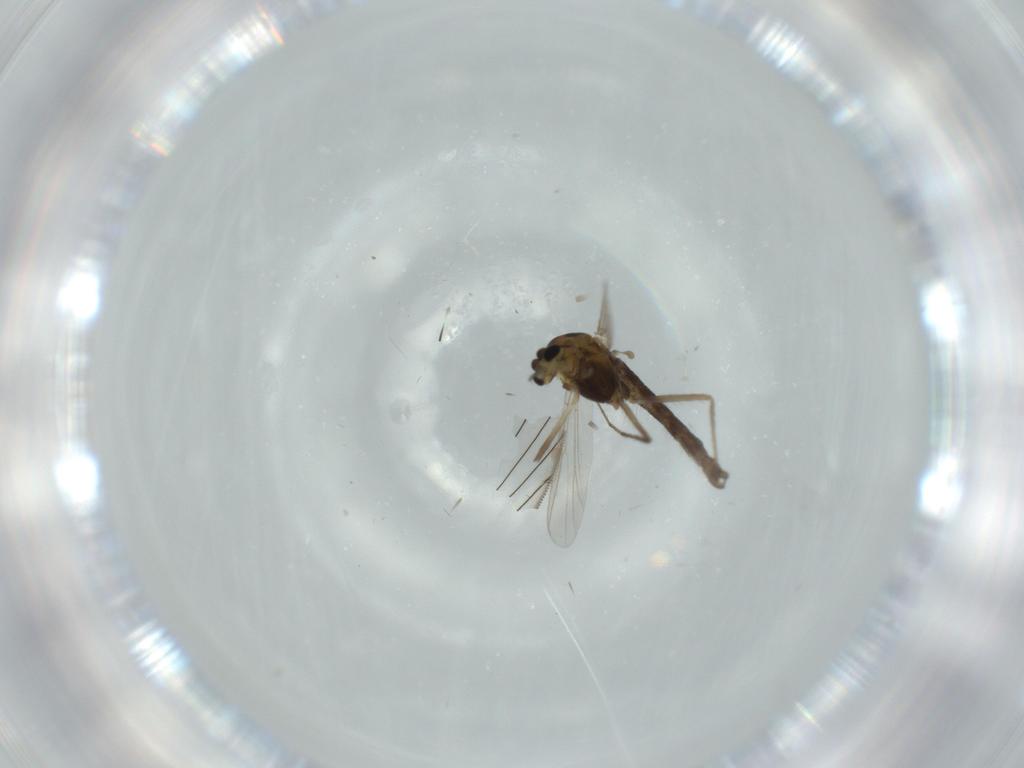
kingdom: Animalia
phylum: Arthropoda
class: Insecta
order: Diptera
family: Chironomidae
